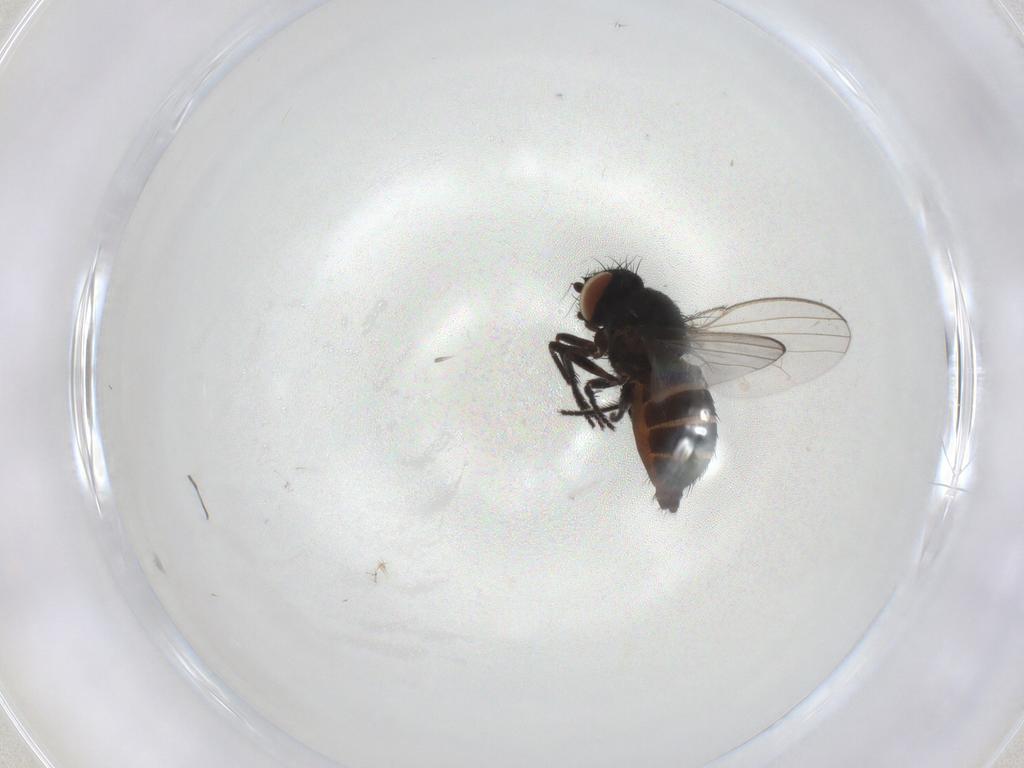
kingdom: Animalia
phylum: Arthropoda
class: Insecta
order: Diptera
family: Milichiidae
